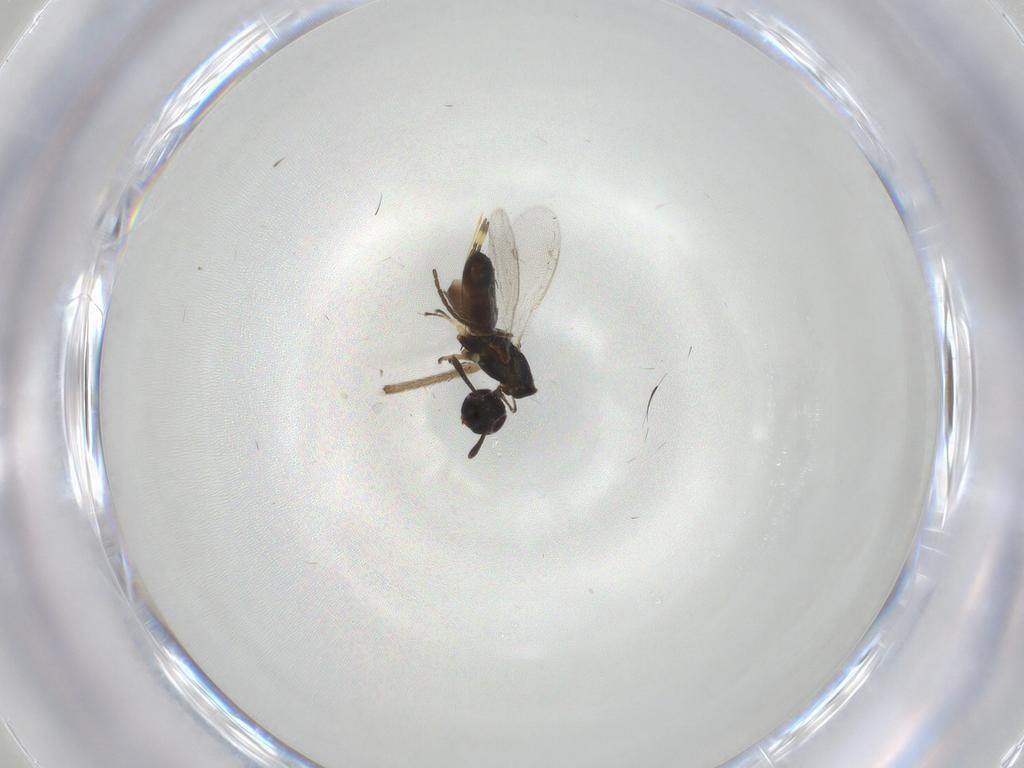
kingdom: Animalia
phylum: Arthropoda
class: Insecta
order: Hymenoptera
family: Eupelmidae
